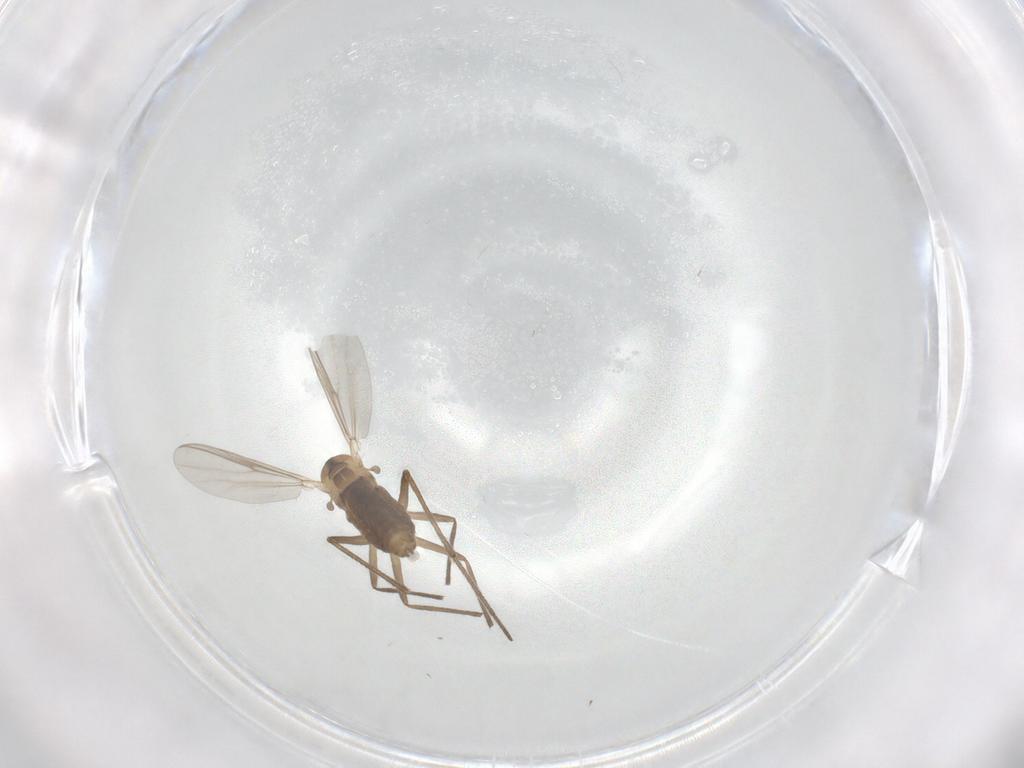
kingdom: Animalia
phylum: Arthropoda
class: Insecta
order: Diptera
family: Chironomidae
